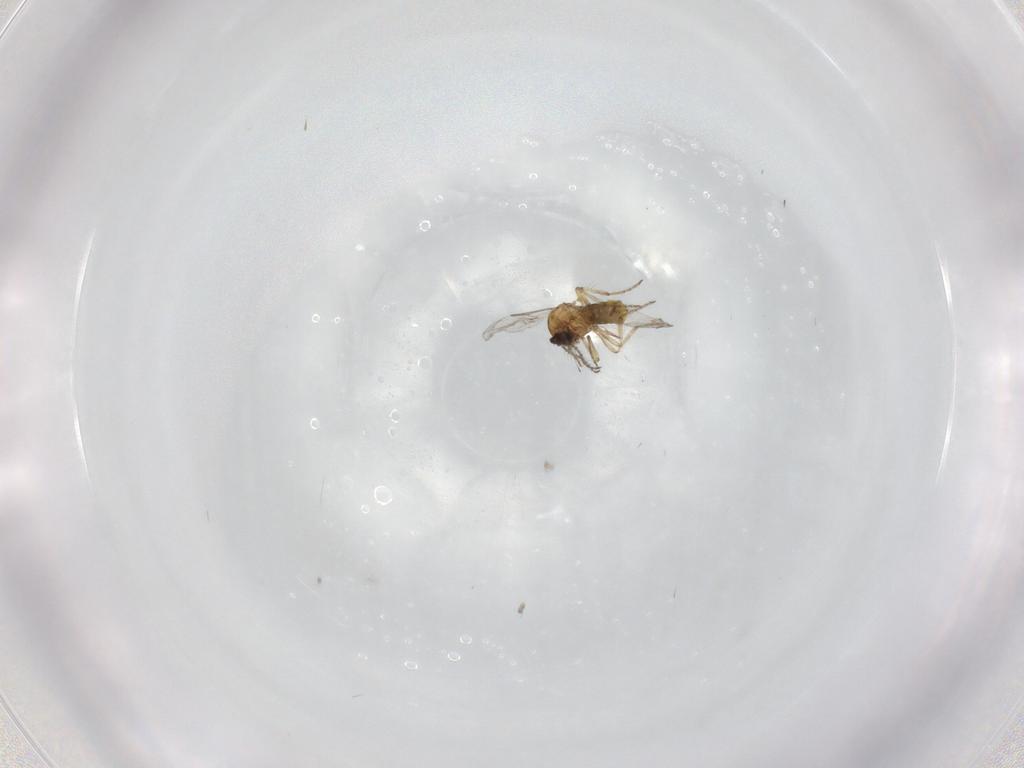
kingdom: Animalia
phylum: Arthropoda
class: Insecta
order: Diptera
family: Ceratopogonidae
